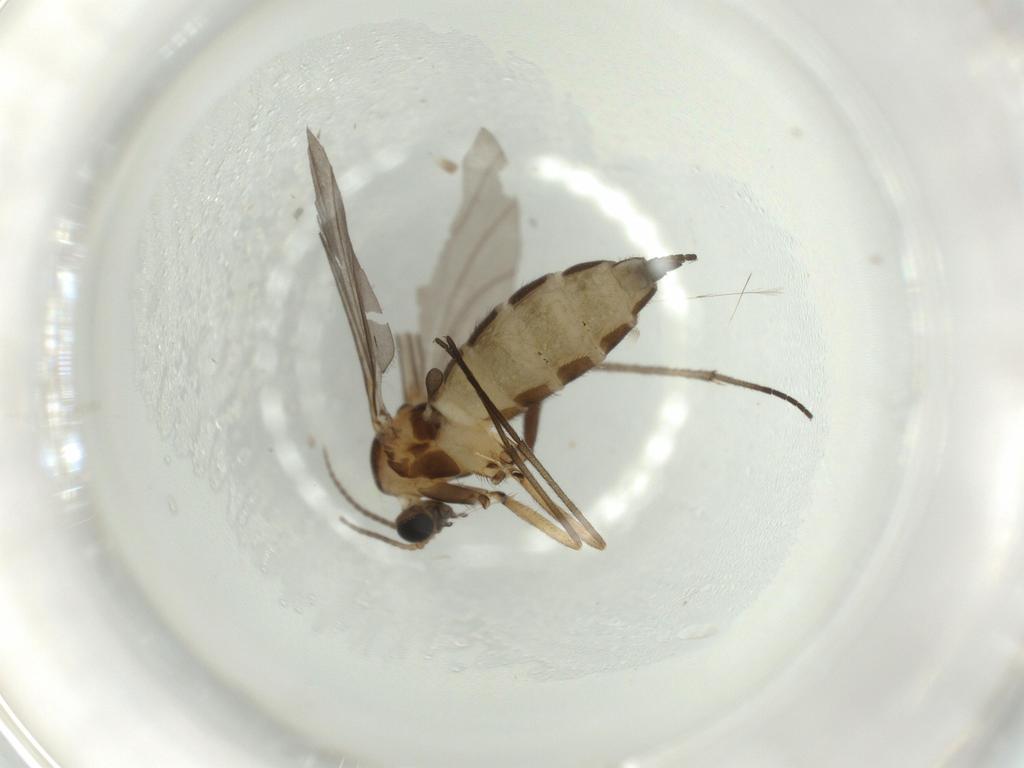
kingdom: Animalia
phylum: Arthropoda
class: Insecta
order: Diptera
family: Sciaridae
